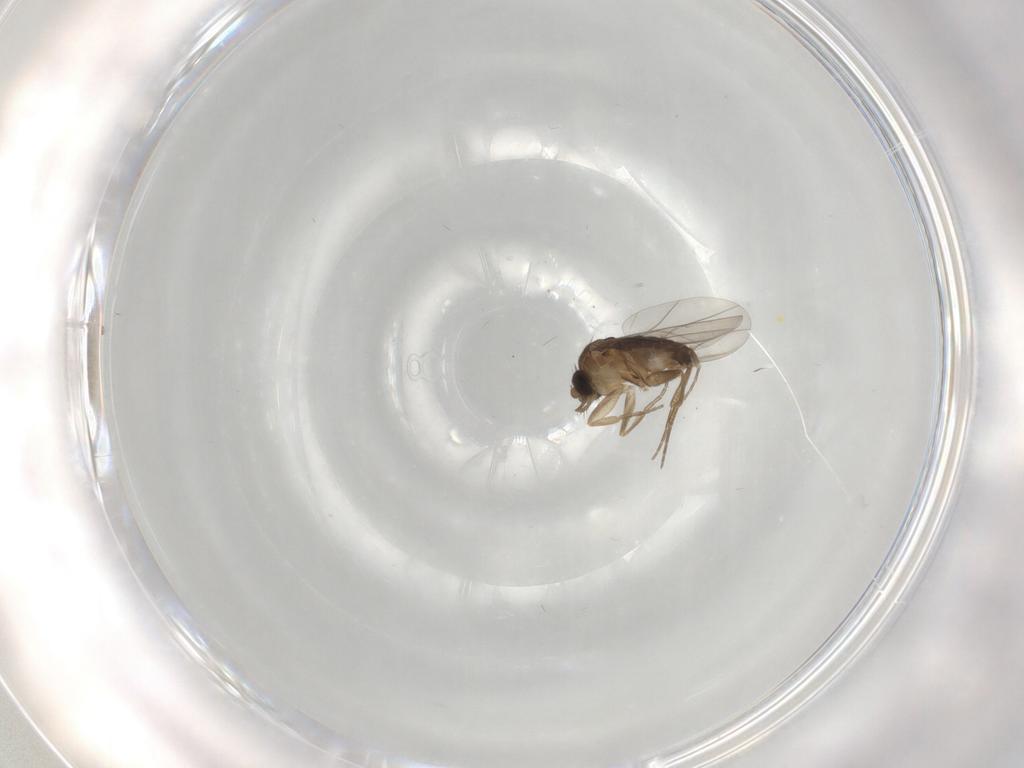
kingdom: Animalia
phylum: Arthropoda
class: Insecta
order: Diptera
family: Phoridae
